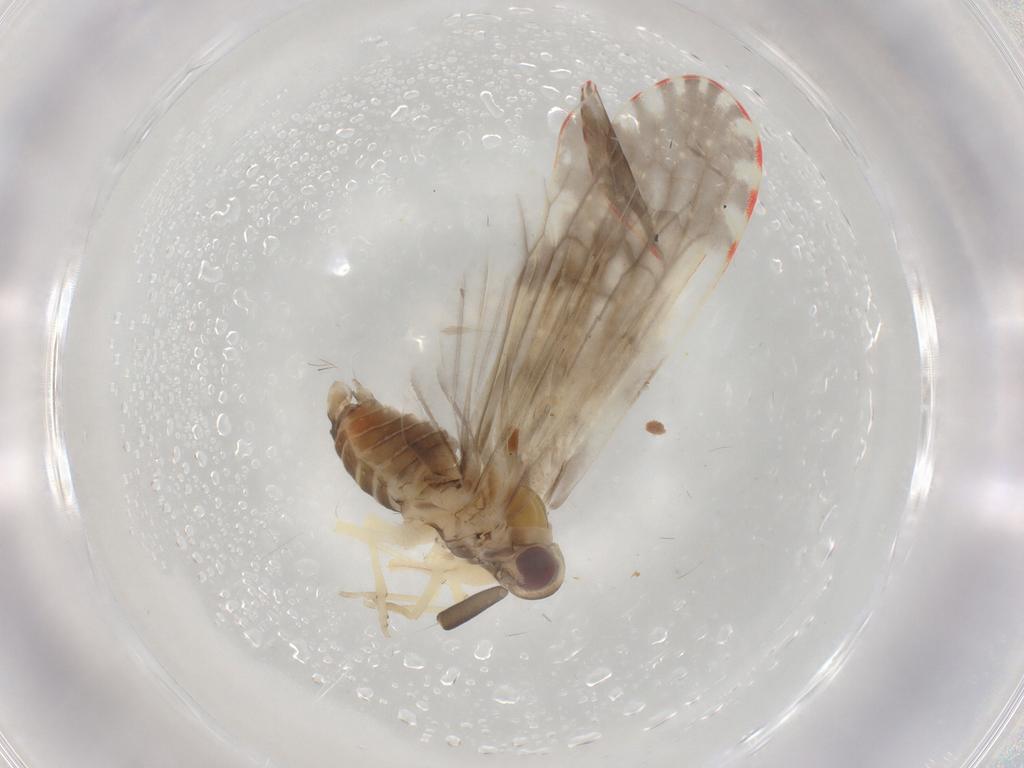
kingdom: Animalia
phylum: Arthropoda
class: Insecta
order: Hemiptera
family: Derbidae
